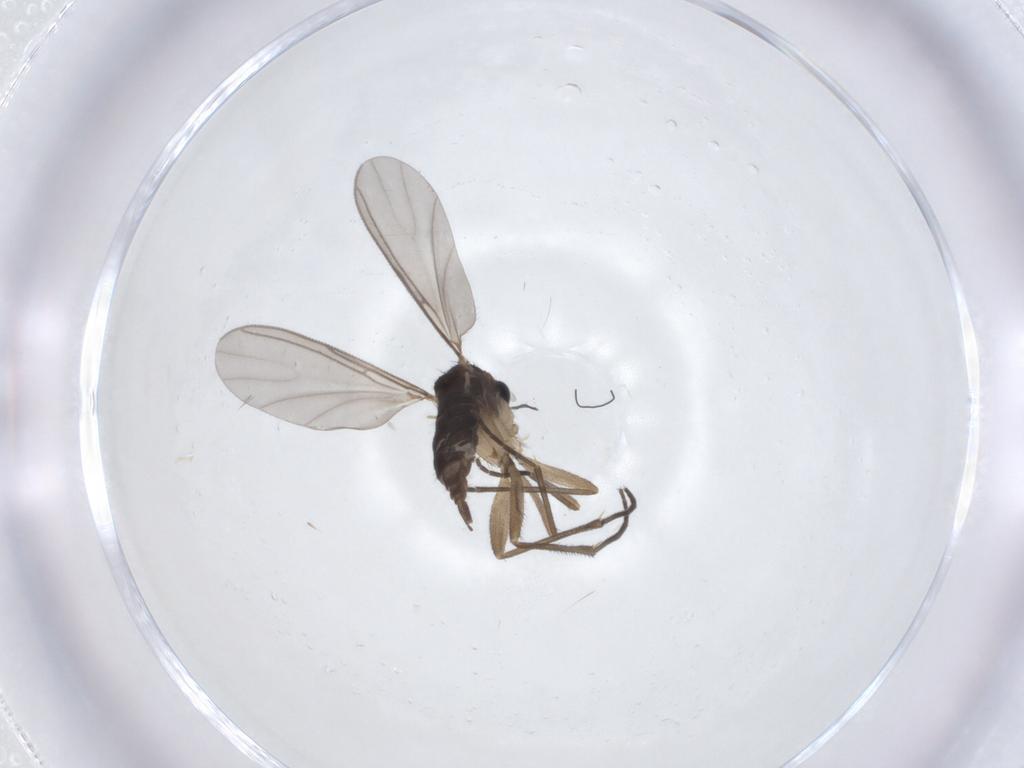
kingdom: Animalia
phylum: Arthropoda
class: Insecta
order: Diptera
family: Sciaridae
